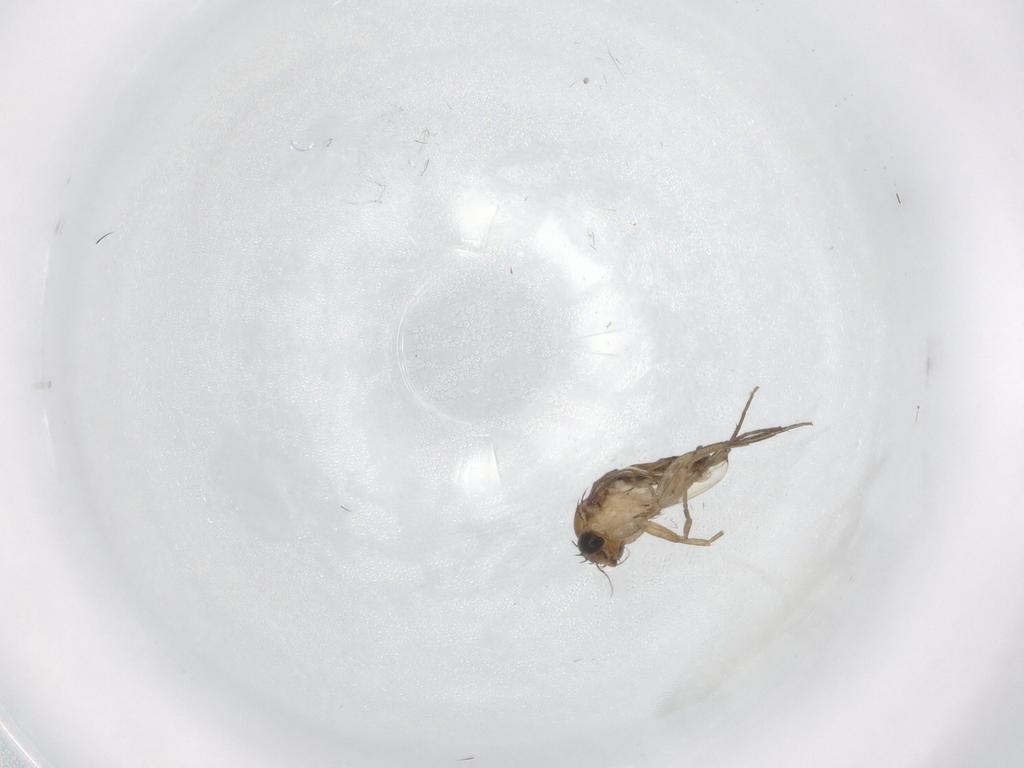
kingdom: Animalia
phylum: Arthropoda
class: Insecta
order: Diptera
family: Phoridae
